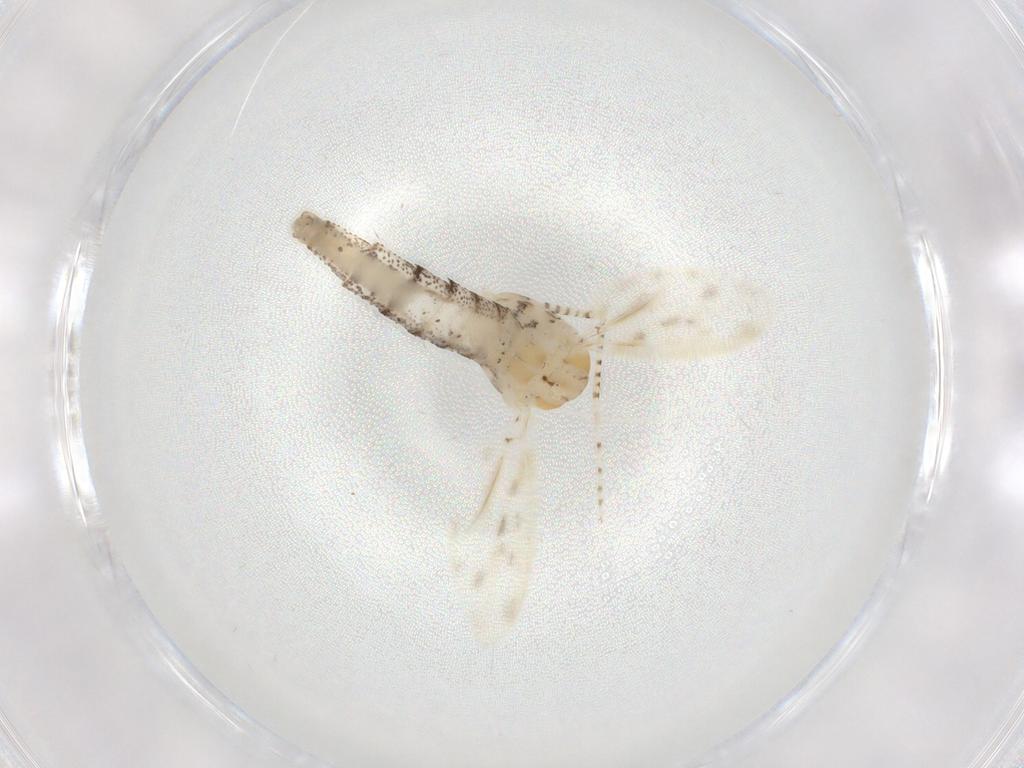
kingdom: Animalia
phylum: Arthropoda
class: Insecta
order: Diptera
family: Chaoboridae
